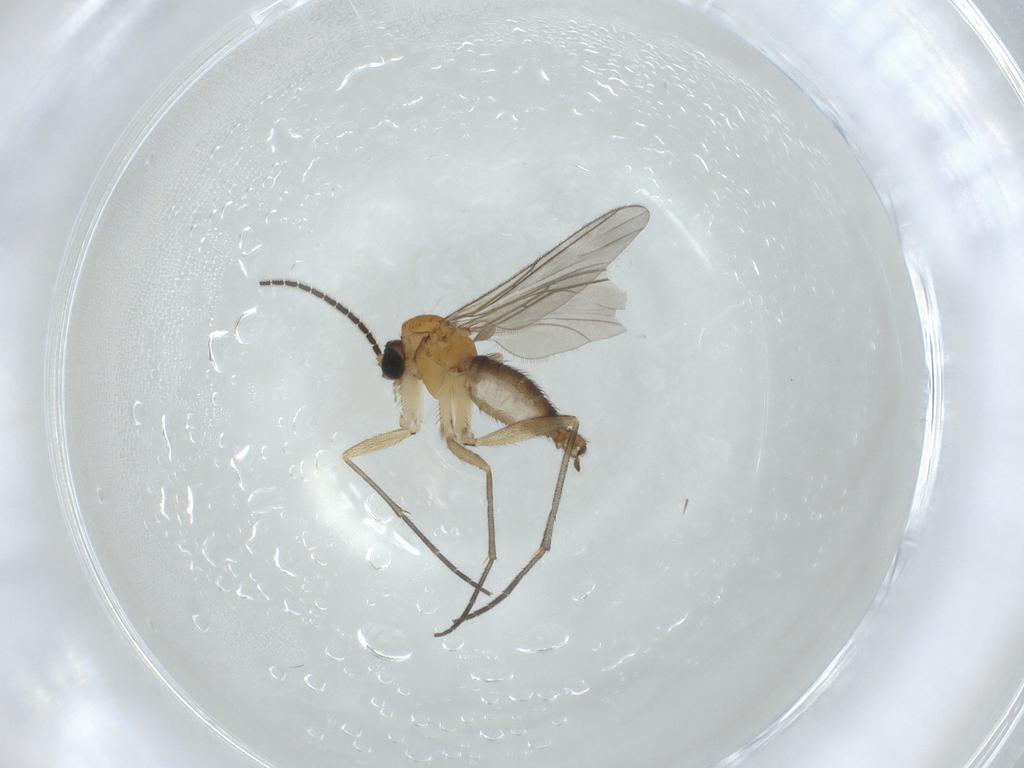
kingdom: Animalia
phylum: Arthropoda
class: Insecta
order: Diptera
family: Sciaridae
